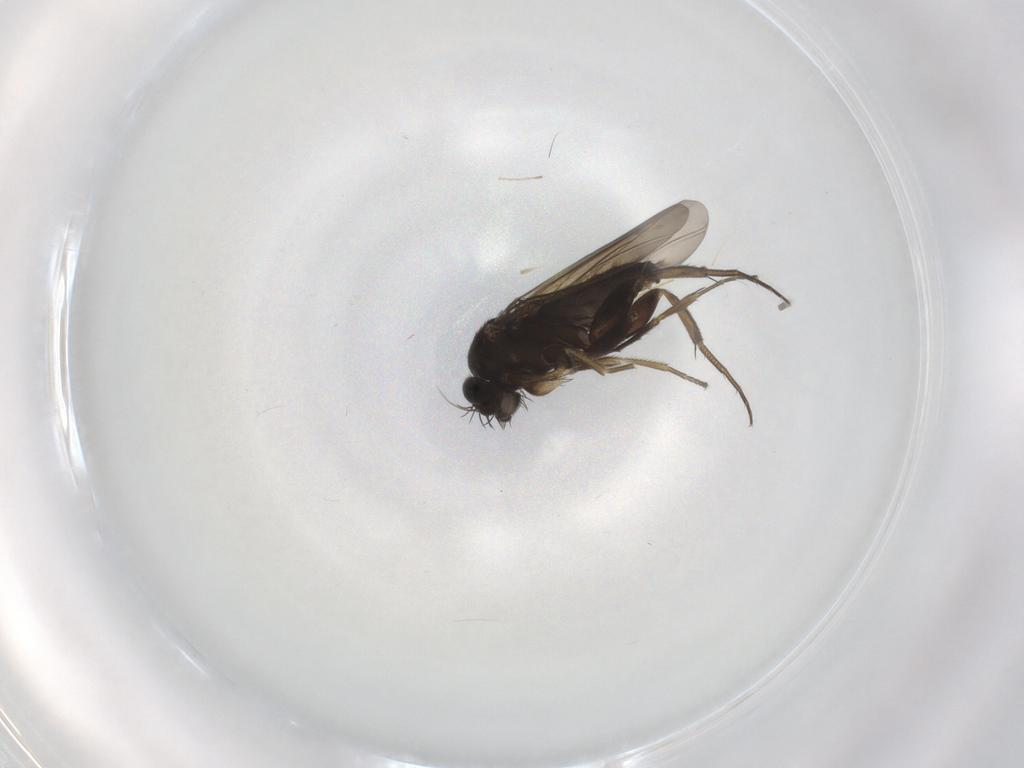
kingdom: Animalia
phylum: Arthropoda
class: Insecta
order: Diptera
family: Phoridae
